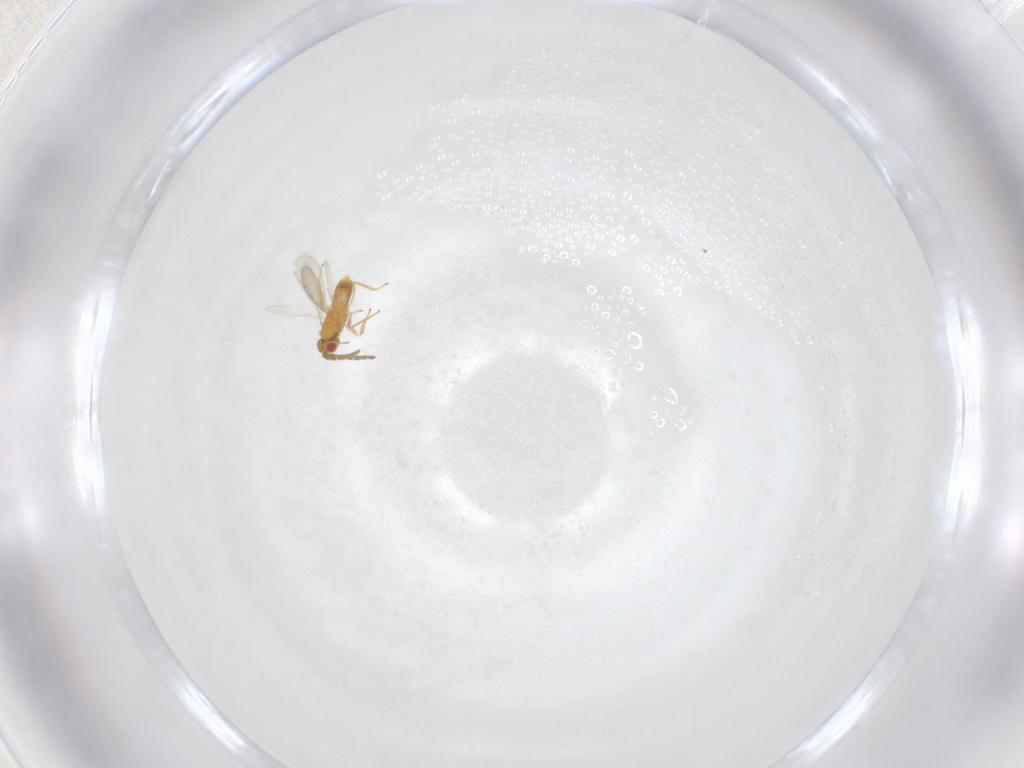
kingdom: Animalia
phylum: Arthropoda
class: Insecta
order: Hymenoptera
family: Aphelinidae
